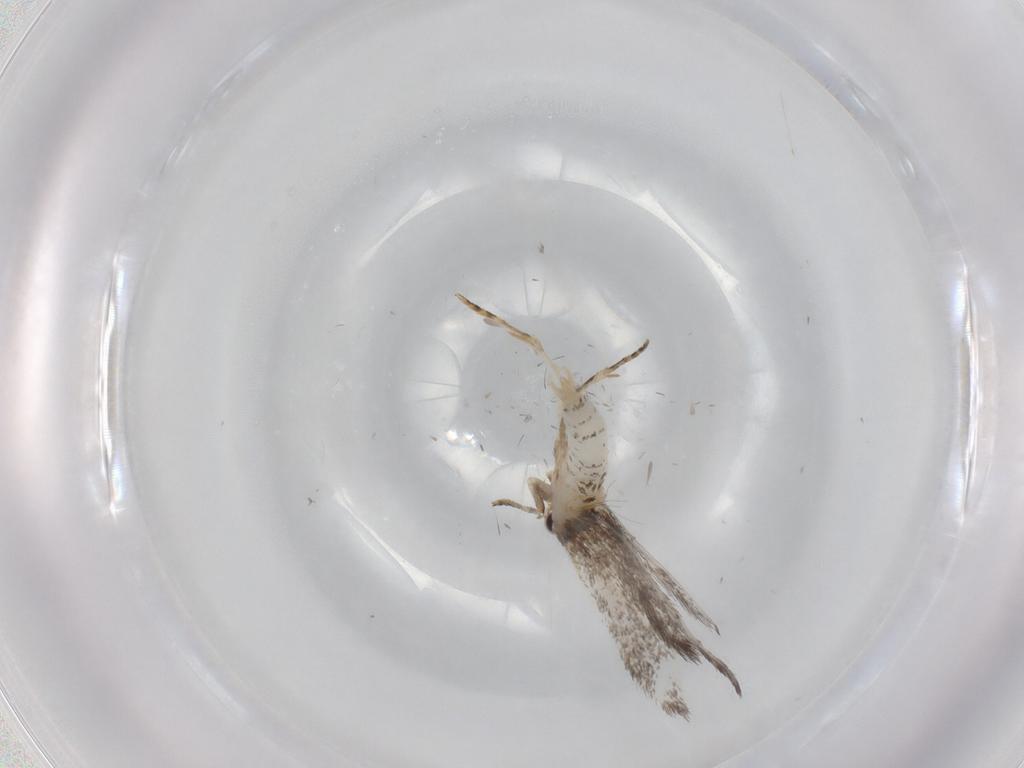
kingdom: Animalia
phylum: Arthropoda
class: Insecta
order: Lepidoptera
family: Tineidae
